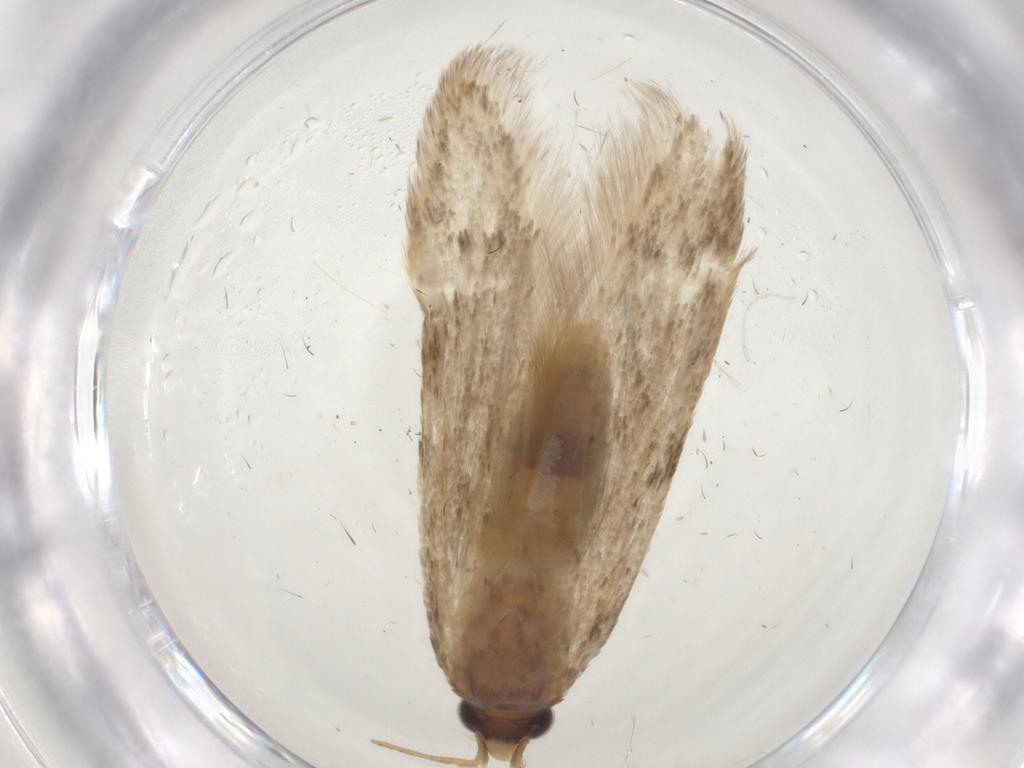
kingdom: Animalia
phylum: Arthropoda
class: Insecta
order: Lepidoptera
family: Coleophoridae
